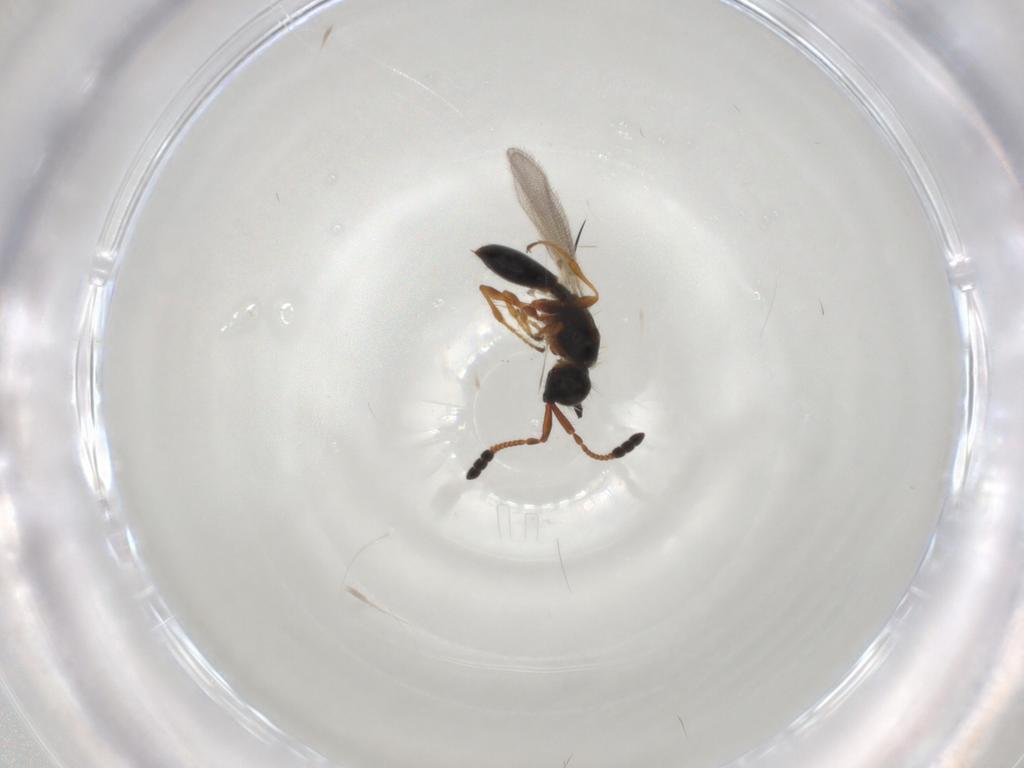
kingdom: Animalia
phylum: Arthropoda
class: Insecta
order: Hymenoptera
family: Diapriidae
